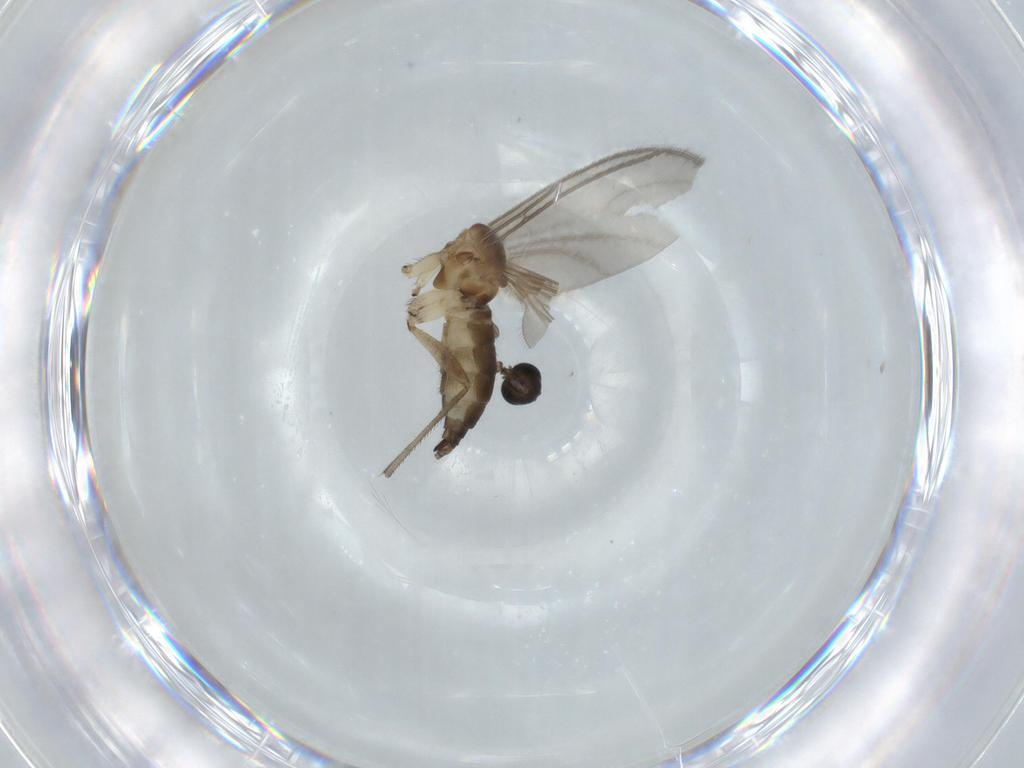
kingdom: Animalia
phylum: Arthropoda
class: Insecta
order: Diptera
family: Sciaridae
